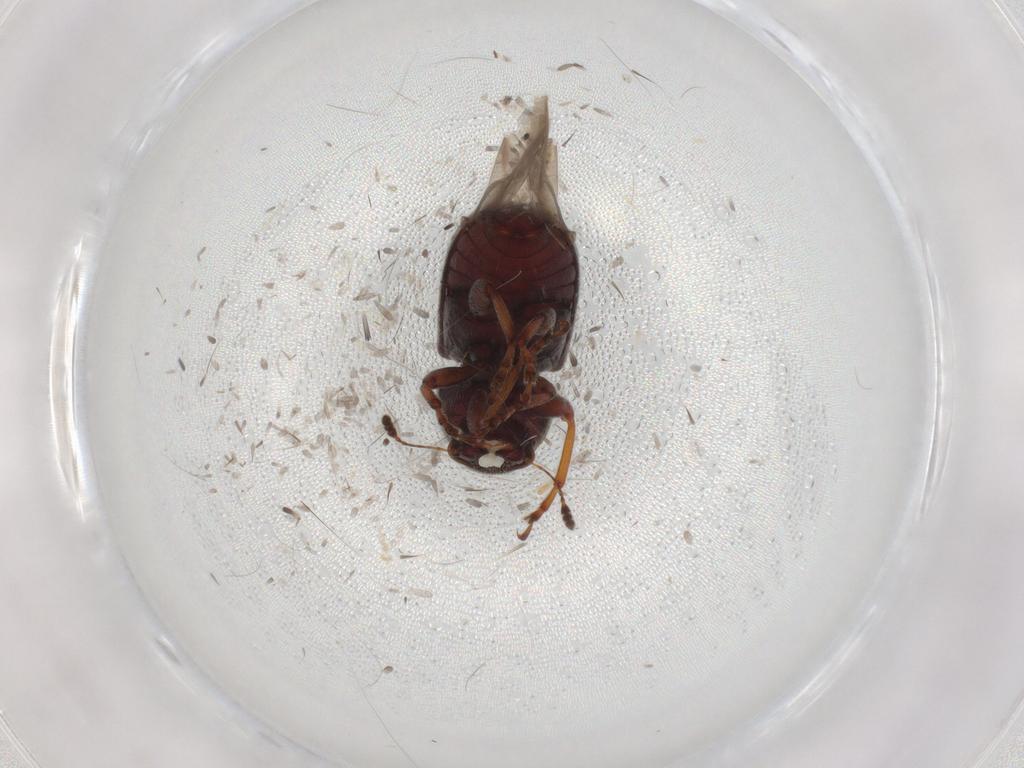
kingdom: Animalia
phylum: Arthropoda
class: Insecta
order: Coleoptera
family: Anthribidae
